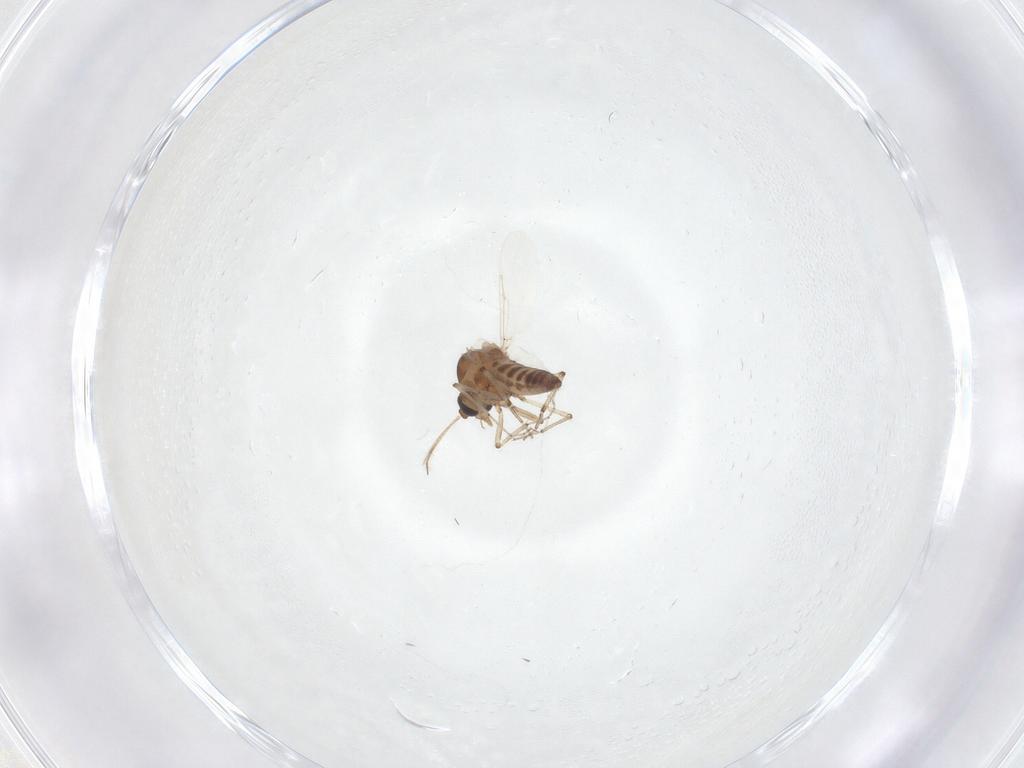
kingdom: Animalia
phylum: Arthropoda
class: Insecta
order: Diptera
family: Ceratopogonidae
